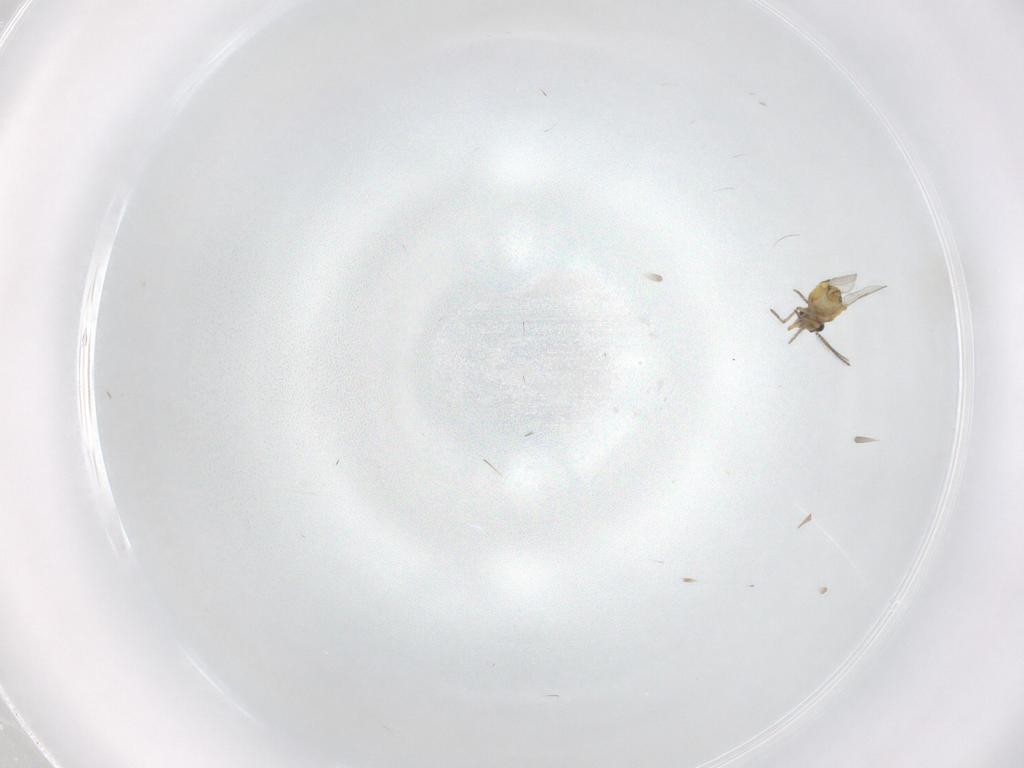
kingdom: Animalia
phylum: Arthropoda
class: Insecta
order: Diptera
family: Ceratopogonidae
